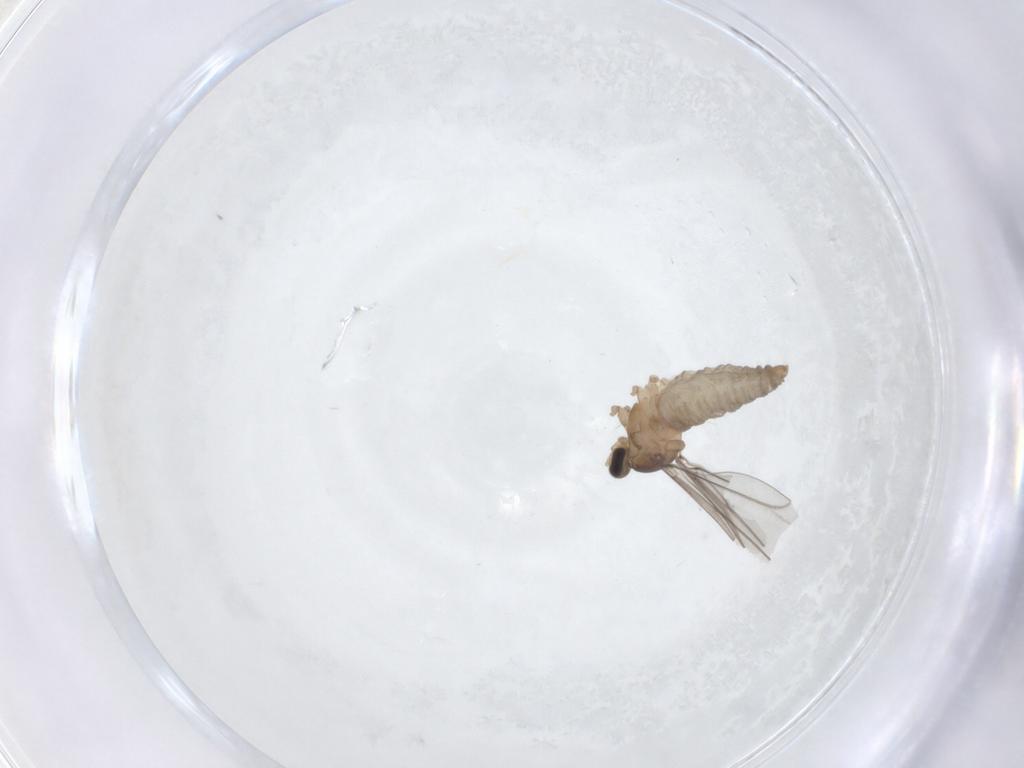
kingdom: Animalia
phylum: Arthropoda
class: Insecta
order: Diptera
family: Cecidomyiidae
